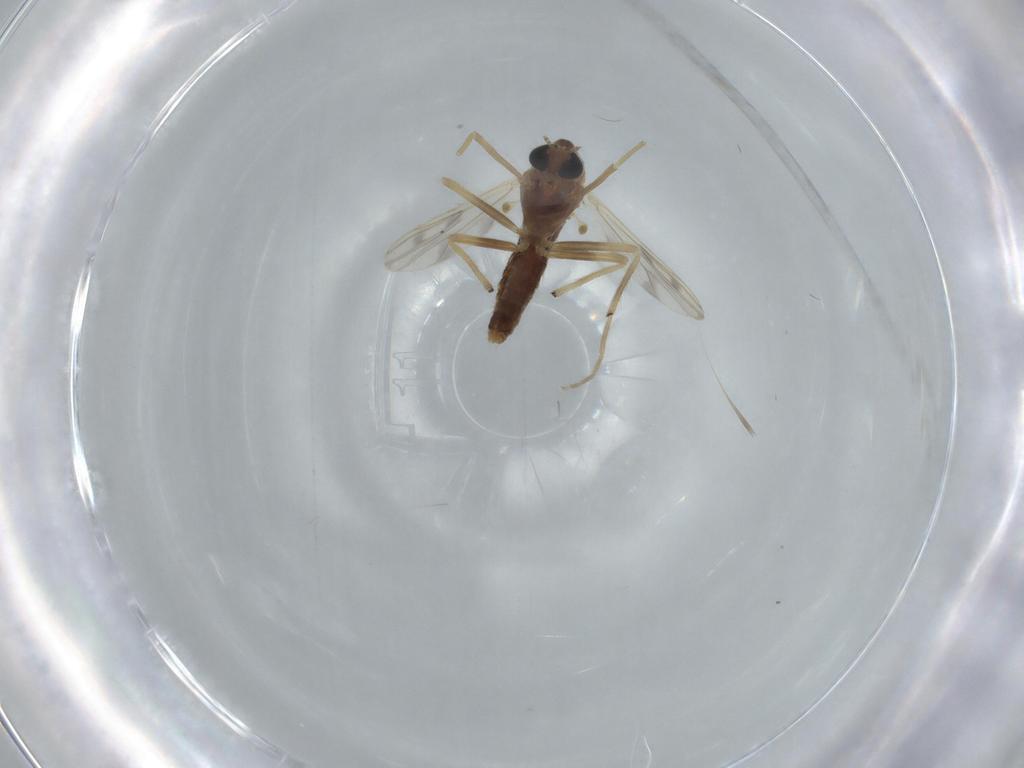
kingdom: Animalia
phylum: Arthropoda
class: Insecta
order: Diptera
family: Chironomidae
